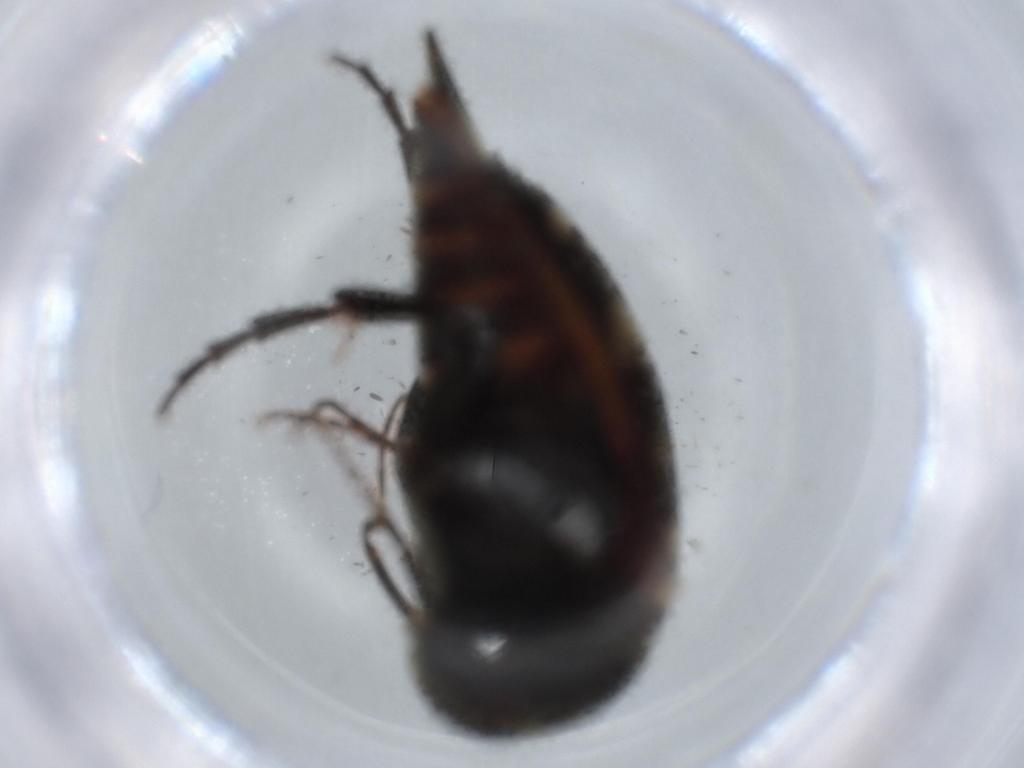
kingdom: Animalia
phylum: Arthropoda
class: Insecta
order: Coleoptera
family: Mordellidae
